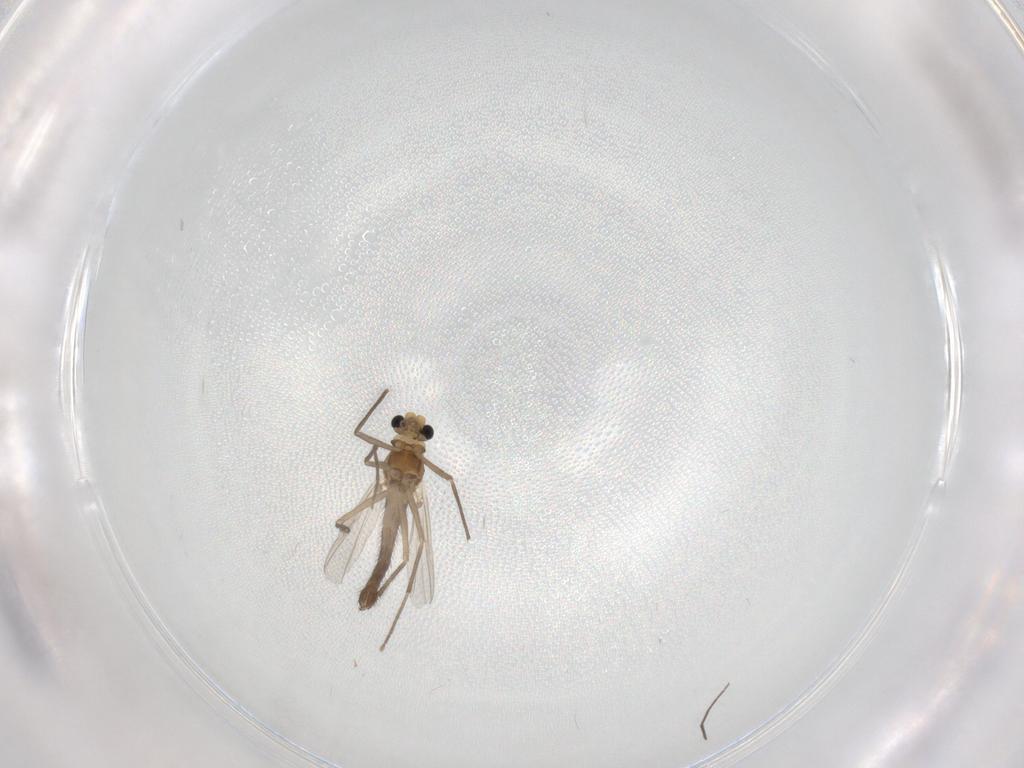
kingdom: Animalia
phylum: Arthropoda
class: Insecta
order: Diptera
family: Chironomidae
